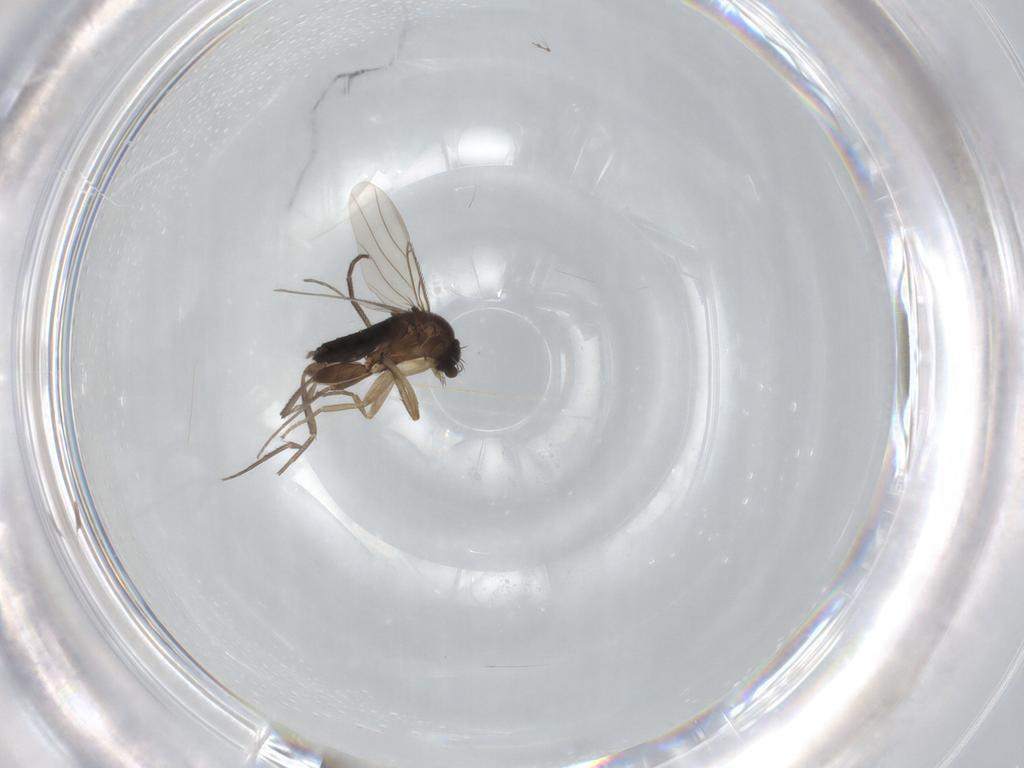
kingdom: Animalia
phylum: Arthropoda
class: Insecta
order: Diptera
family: Phoridae
